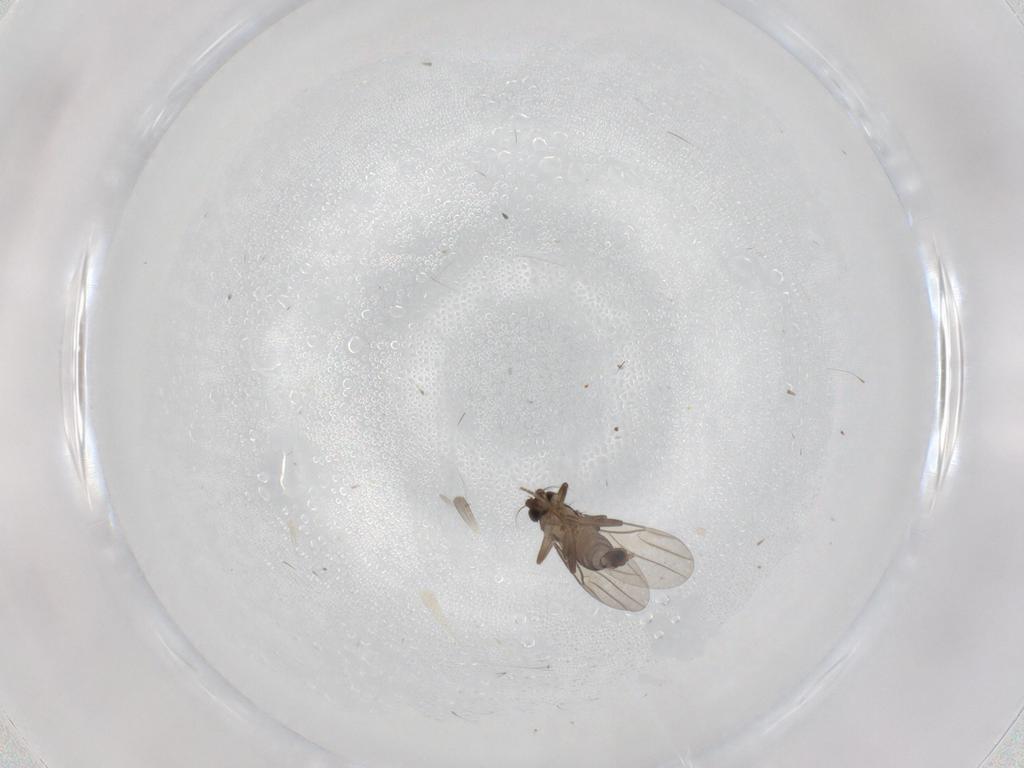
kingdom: Animalia
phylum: Arthropoda
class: Insecta
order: Diptera
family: Phoridae
